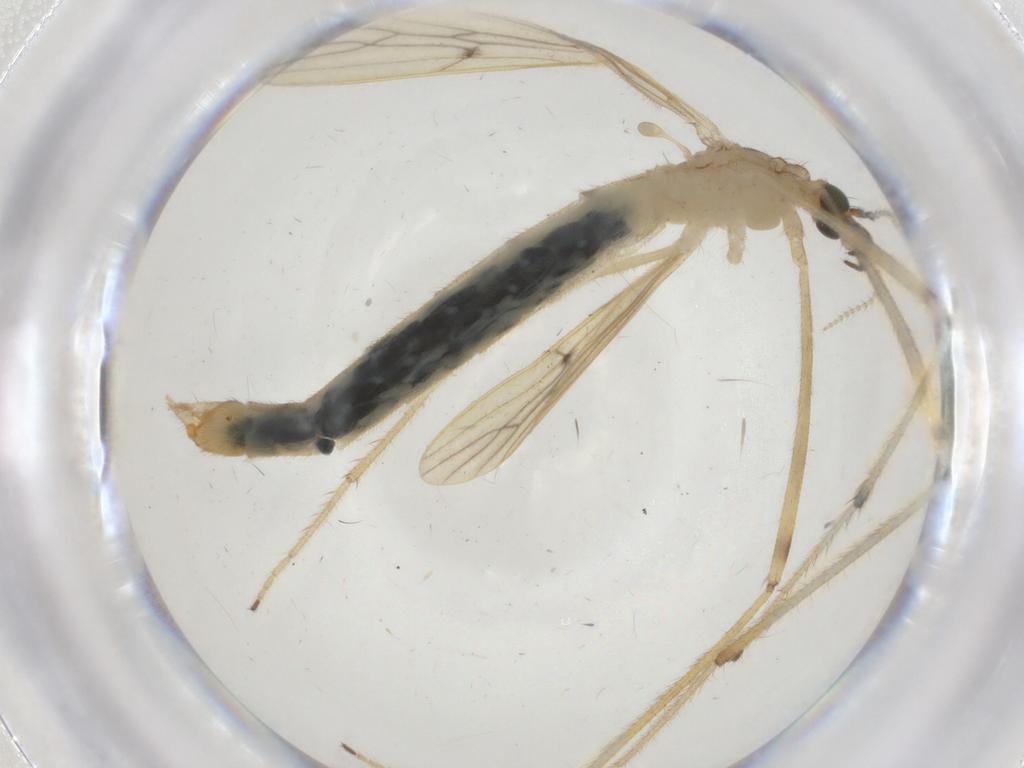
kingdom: Animalia
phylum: Arthropoda
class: Insecta
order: Diptera
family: Limoniidae
